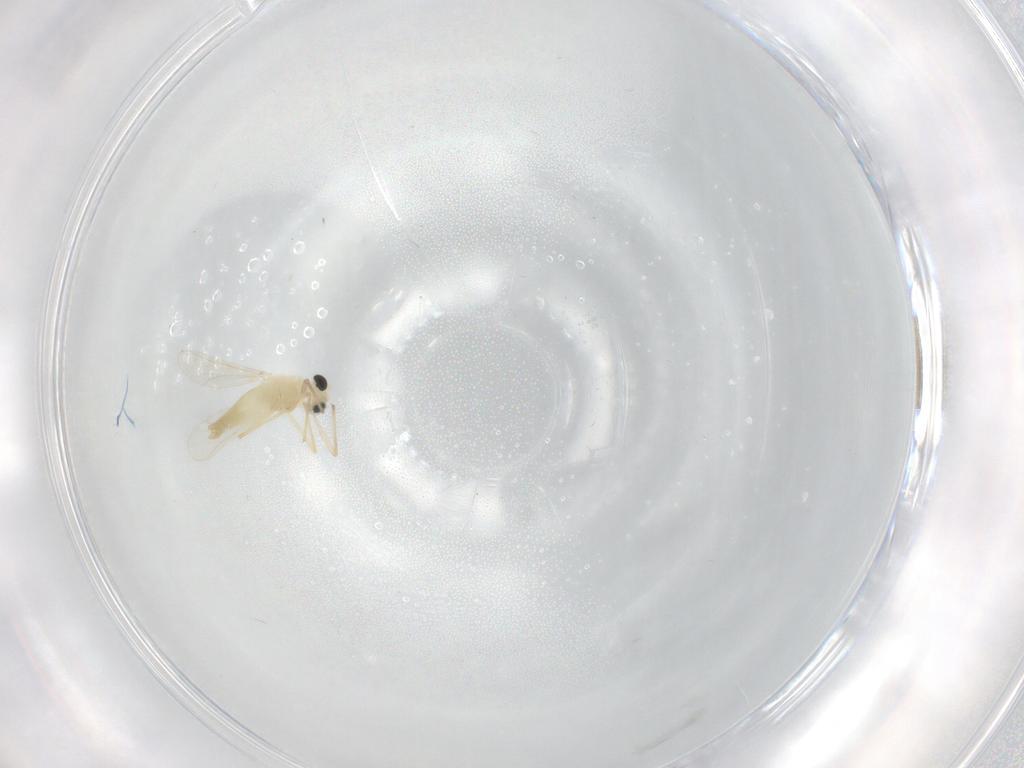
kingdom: Animalia
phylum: Arthropoda
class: Insecta
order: Diptera
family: Chironomidae
